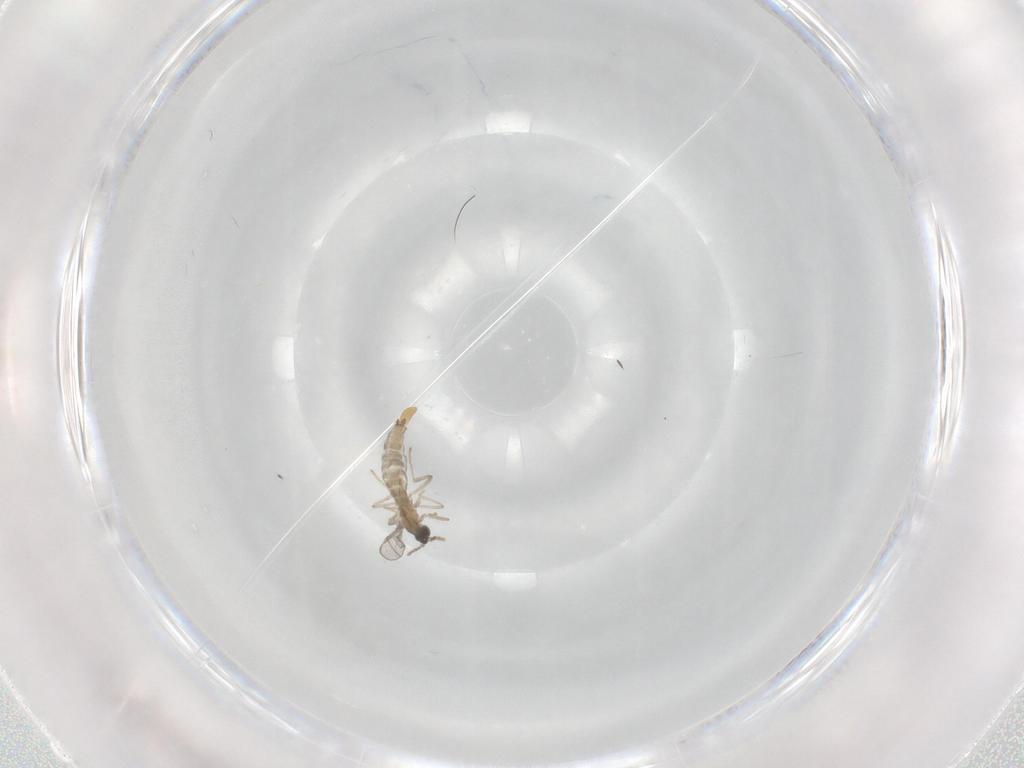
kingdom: Animalia
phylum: Arthropoda
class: Insecta
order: Diptera
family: Cecidomyiidae
